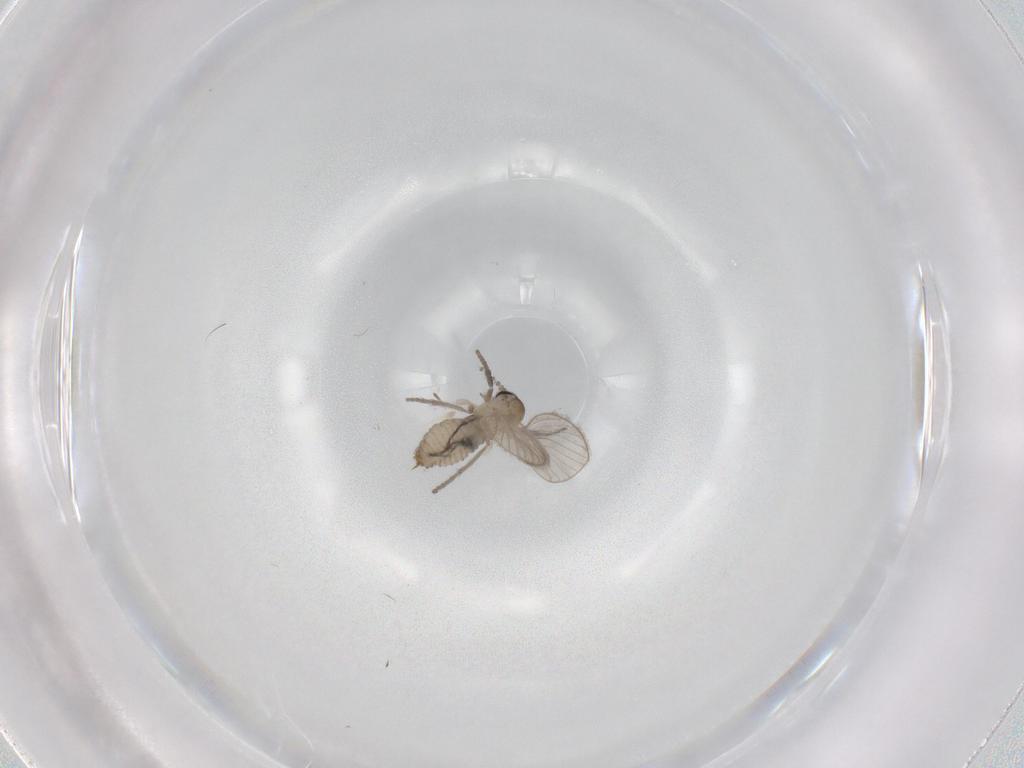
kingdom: Animalia
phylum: Arthropoda
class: Insecta
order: Diptera
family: Psychodidae
